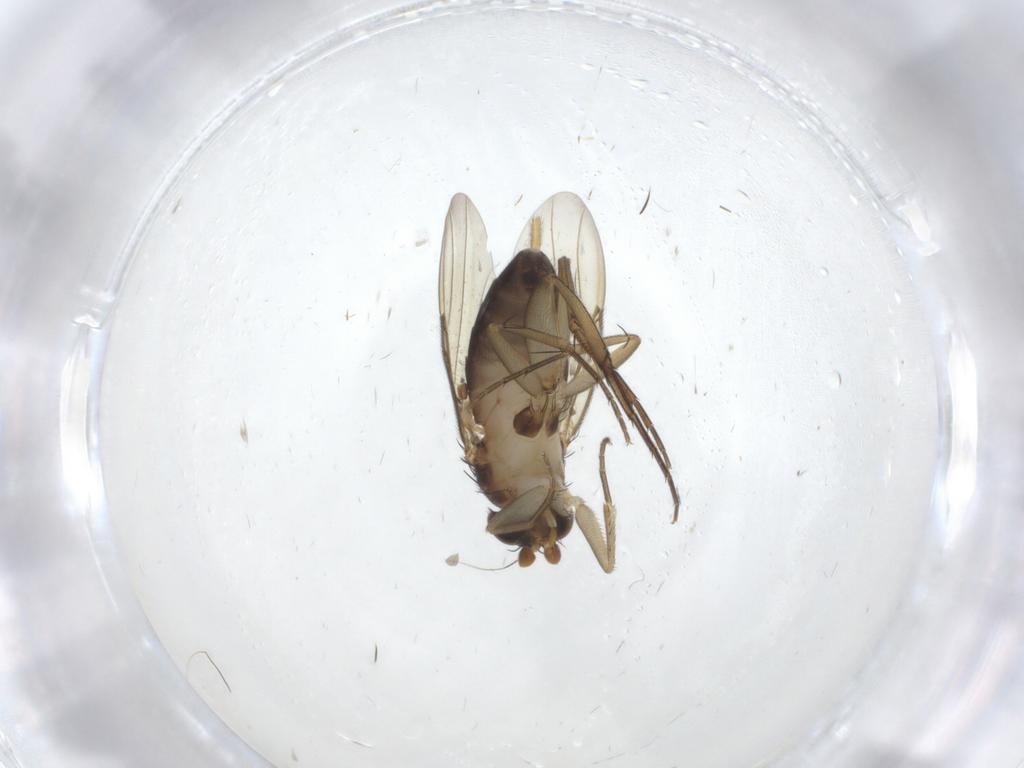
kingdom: Animalia
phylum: Arthropoda
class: Insecta
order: Diptera
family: Phoridae
